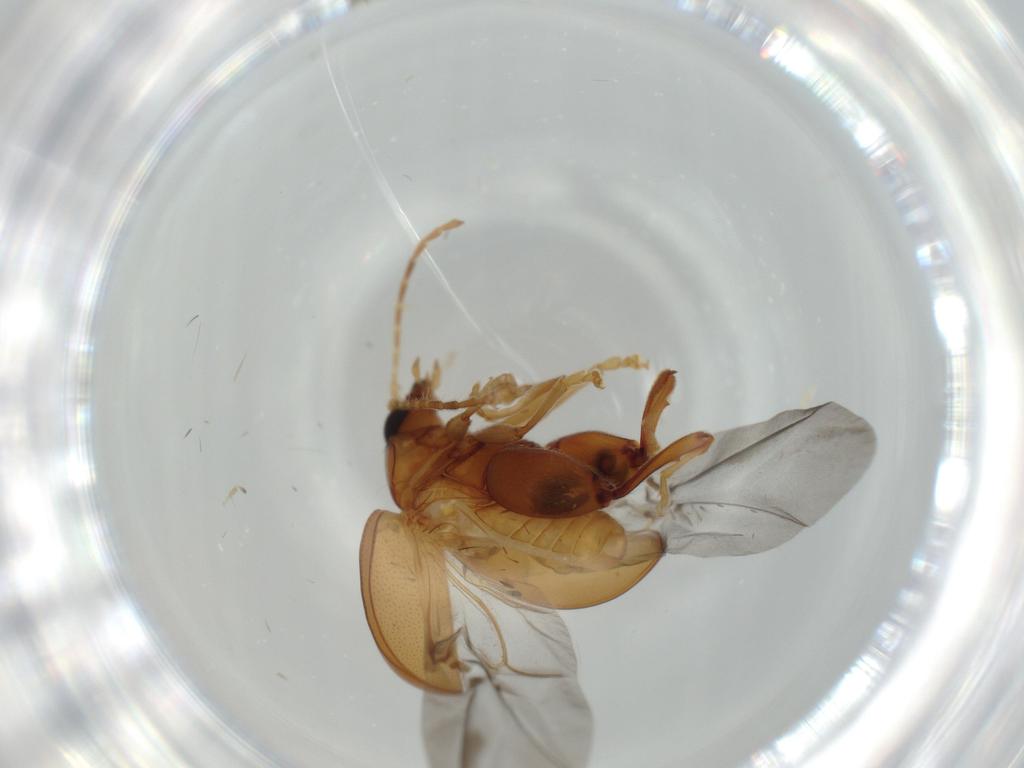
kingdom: Animalia
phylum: Arthropoda
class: Insecta
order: Coleoptera
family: Chrysomelidae
